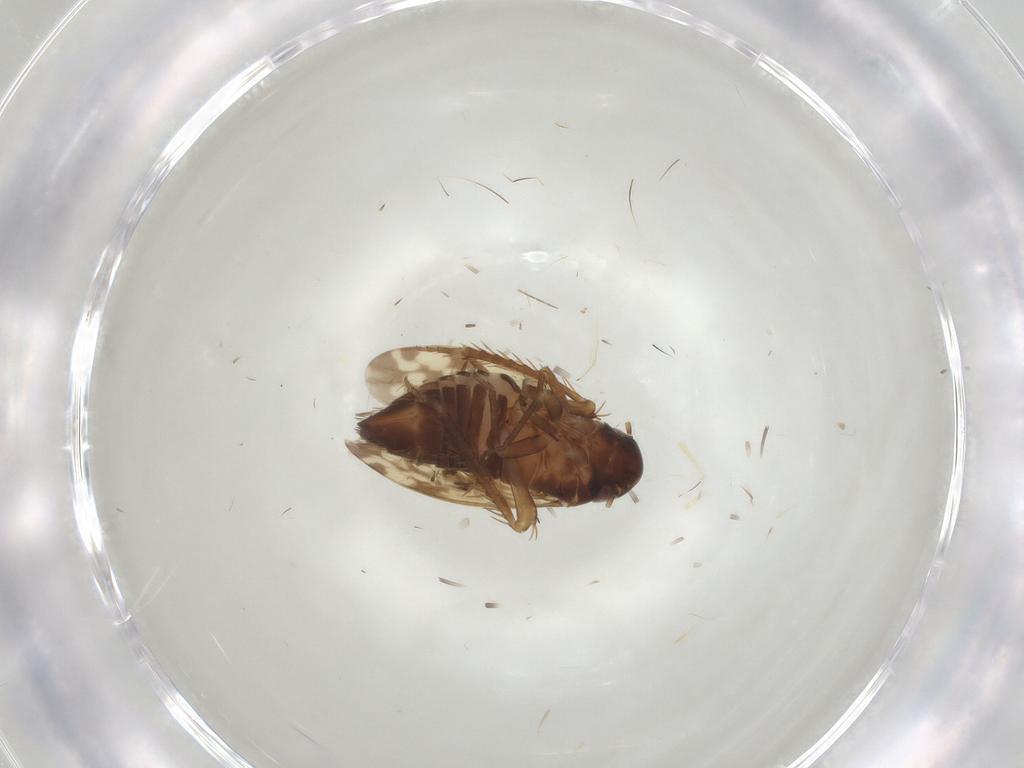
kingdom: Animalia
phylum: Arthropoda
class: Insecta
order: Hemiptera
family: Cicadellidae
